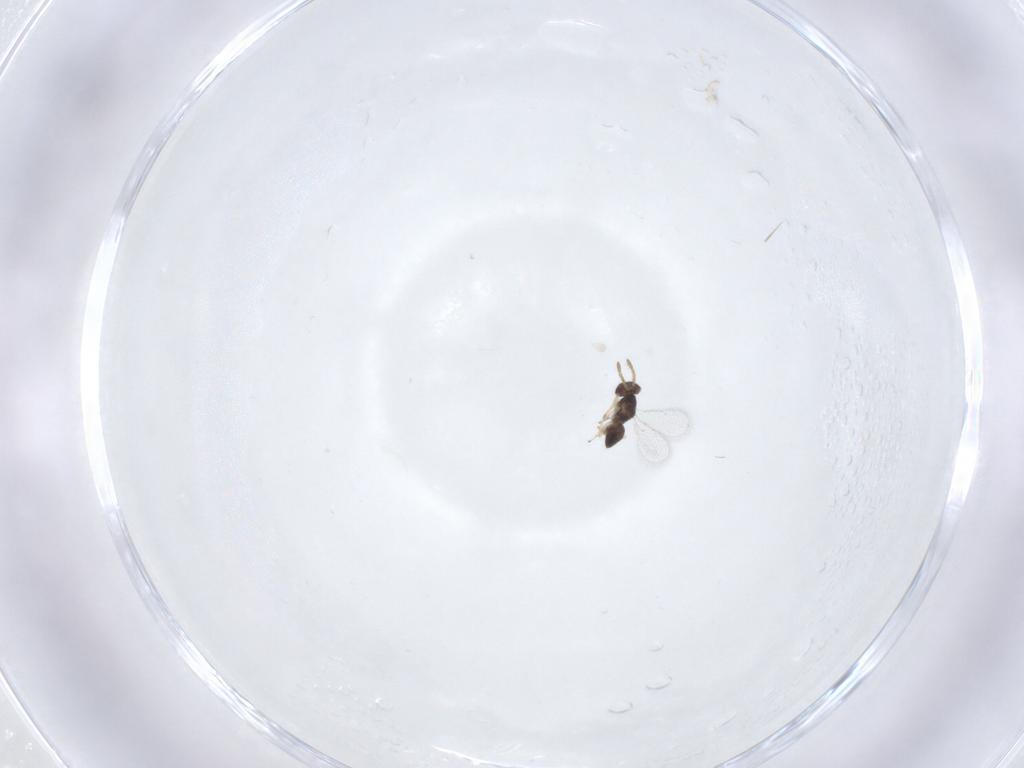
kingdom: Animalia
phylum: Arthropoda
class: Insecta
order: Hymenoptera
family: Eulophidae
